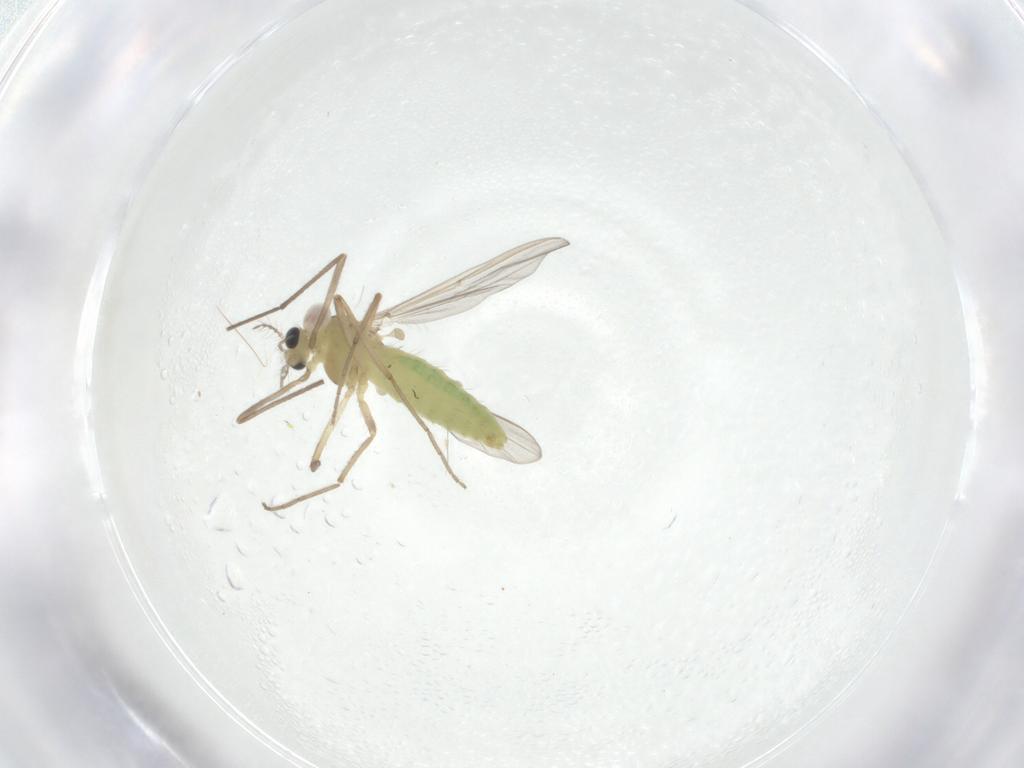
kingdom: Animalia
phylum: Arthropoda
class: Insecta
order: Diptera
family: Chironomidae
